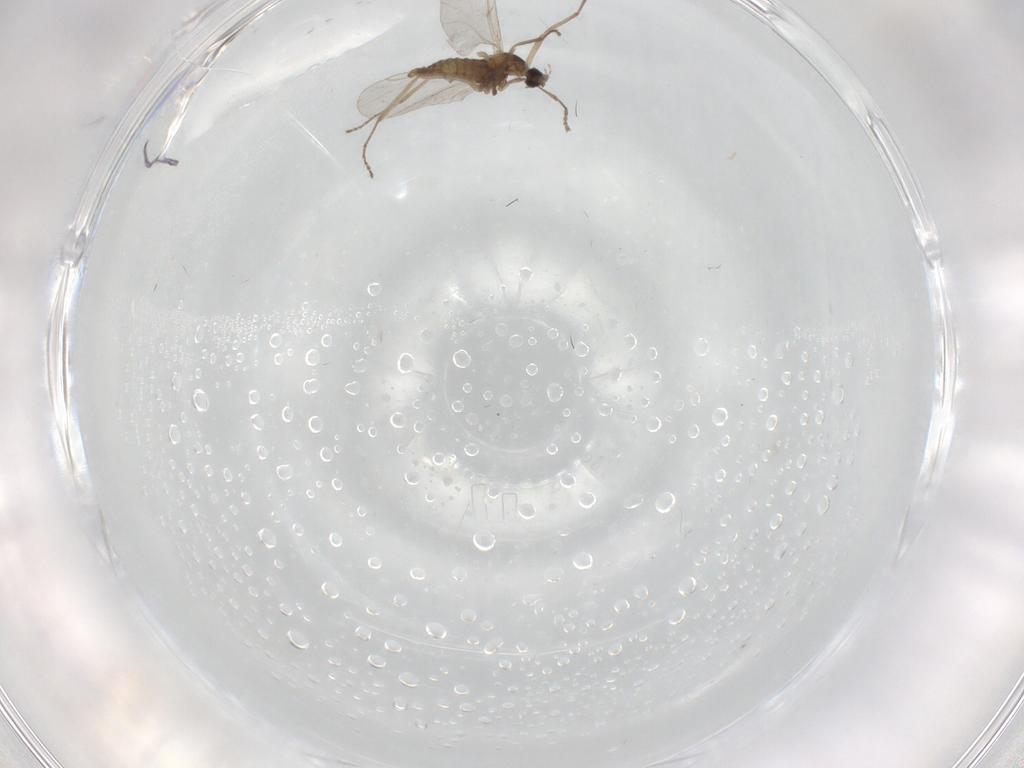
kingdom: Animalia
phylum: Arthropoda
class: Insecta
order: Diptera
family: Cecidomyiidae
